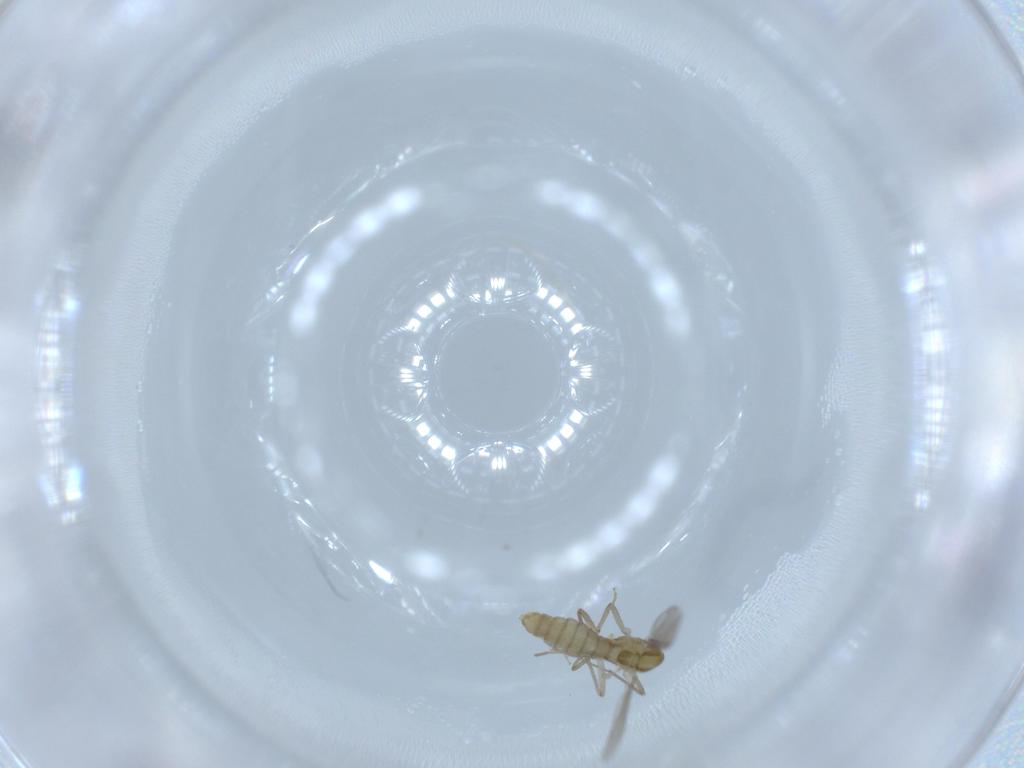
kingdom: Animalia
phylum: Arthropoda
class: Insecta
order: Diptera
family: Chironomidae
